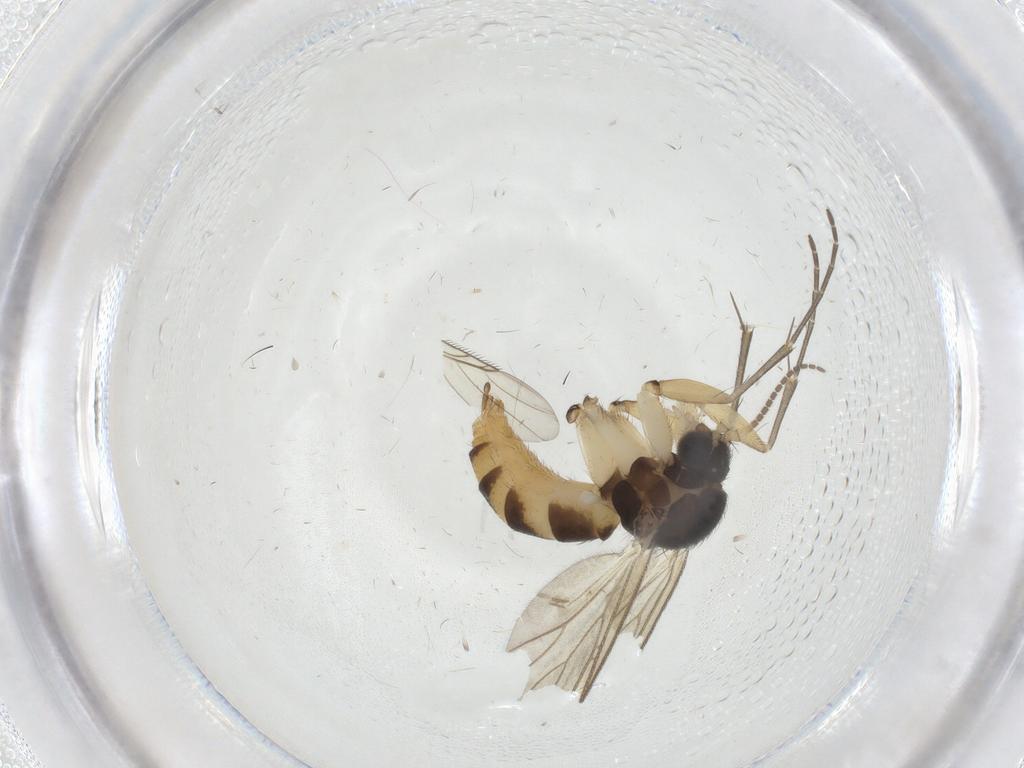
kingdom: Animalia
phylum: Arthropoda
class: Insecta
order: Diptera
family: Mycetophilidae
